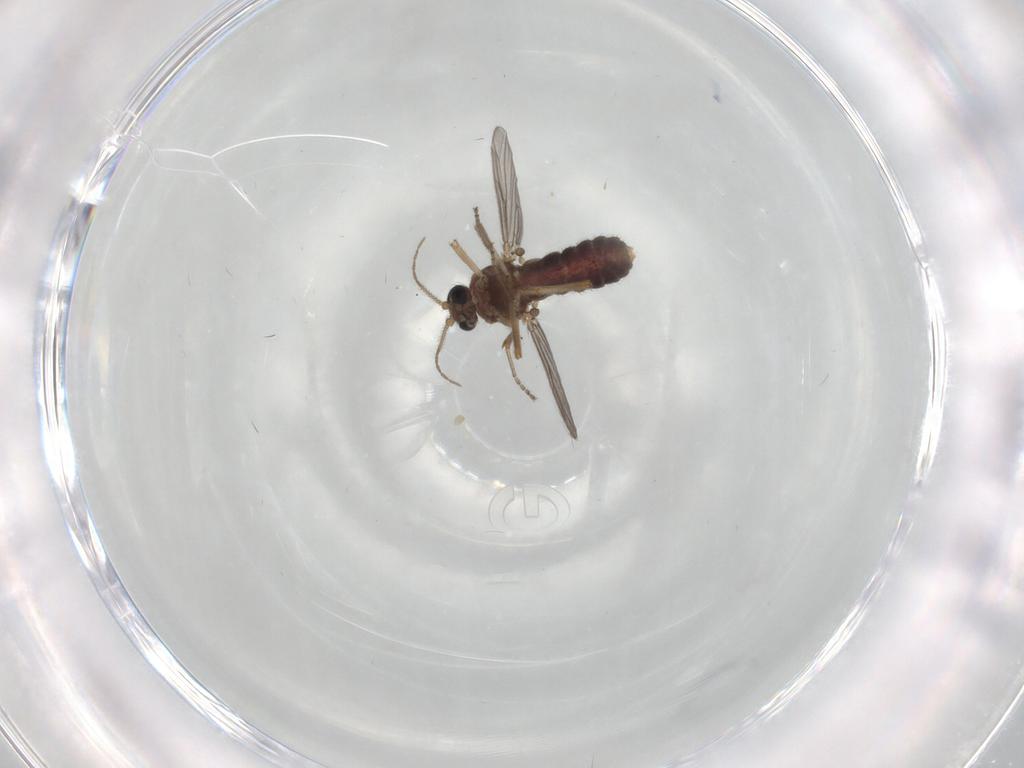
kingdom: Animalia
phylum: Arthropoda
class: Insecta
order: Diptera
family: Ceratopogonidae
